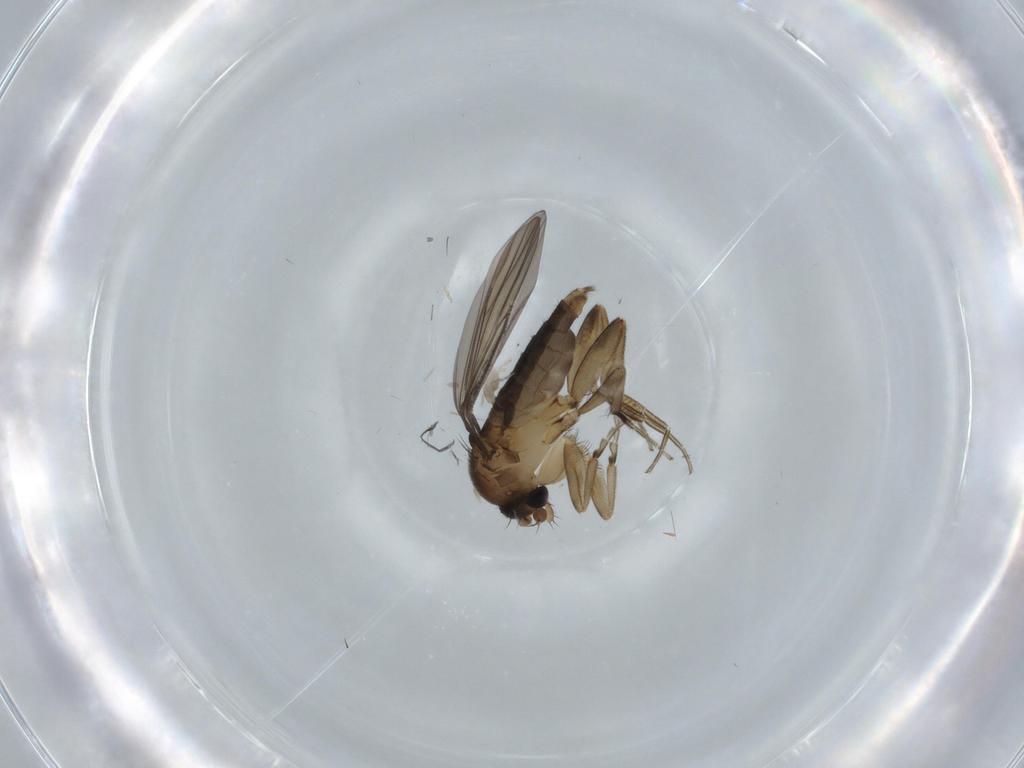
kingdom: Animalia
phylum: Arthropoda
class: Insecta
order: Diptera
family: Phoridae
